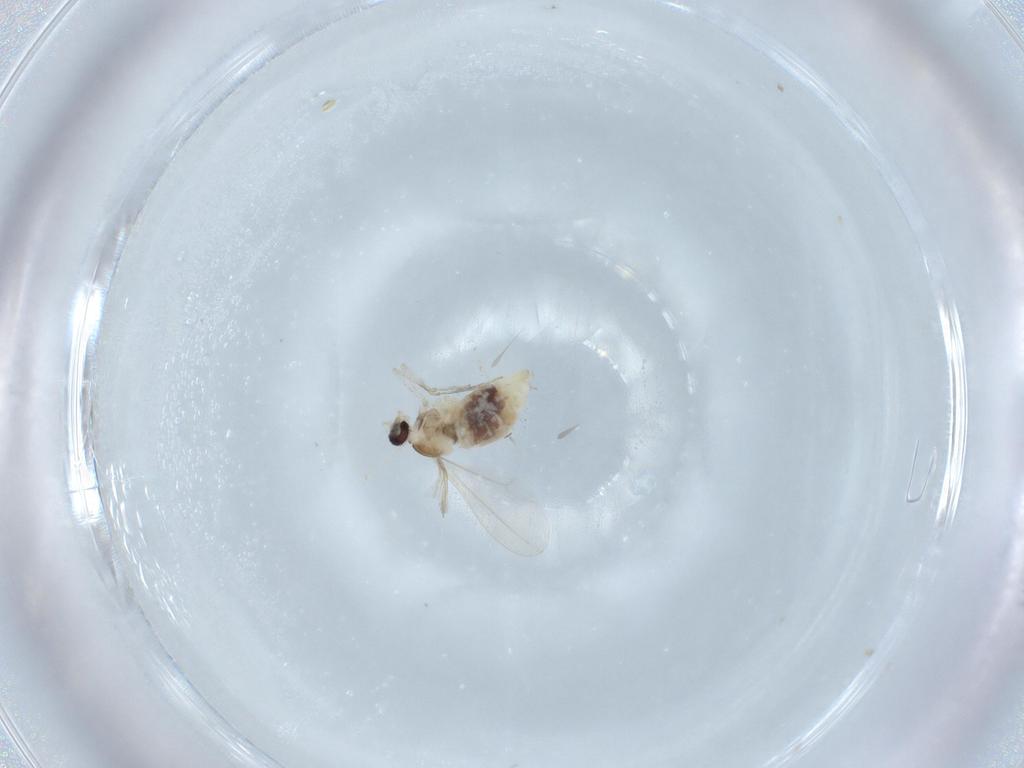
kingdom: Animalia
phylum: Arthropoda
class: Insecta
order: Diptera
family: Cecidomyiidae
